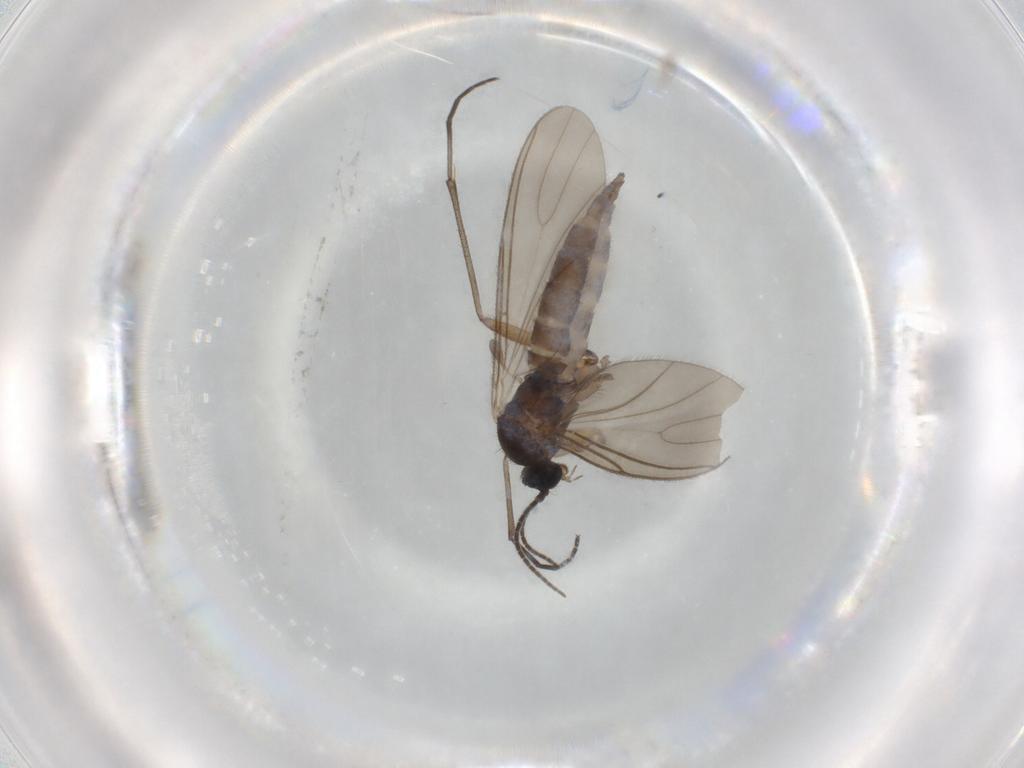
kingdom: Animalia
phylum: Arthropoda
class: Insecta
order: Diptera
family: Sciaridae
